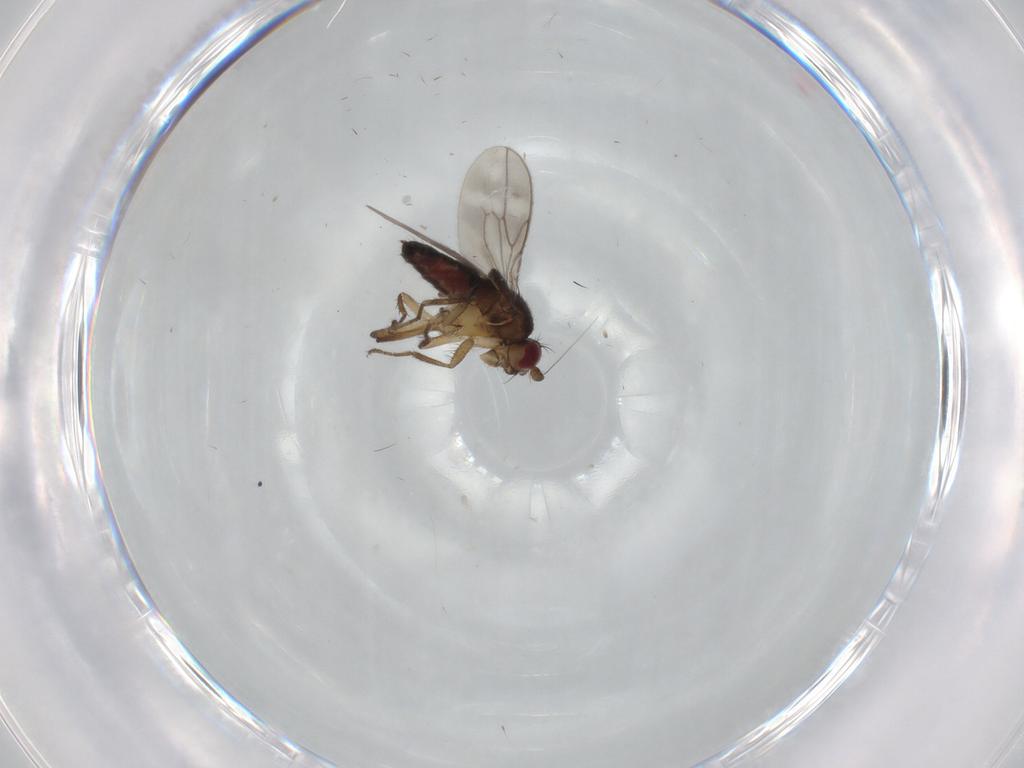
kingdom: Animalia
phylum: Arthropoda
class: Insecta
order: Diptera
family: Sphaeroceridae
